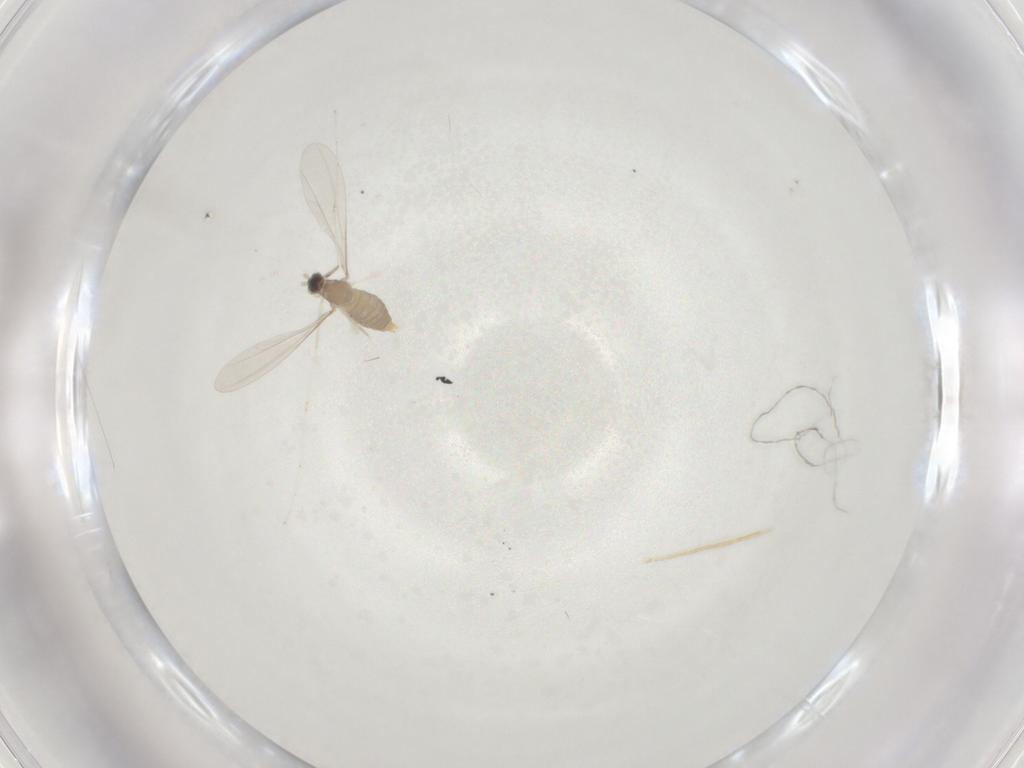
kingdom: Animalia
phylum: Arthropoda
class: Insecta
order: Diptera
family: Cecidomyiidae
